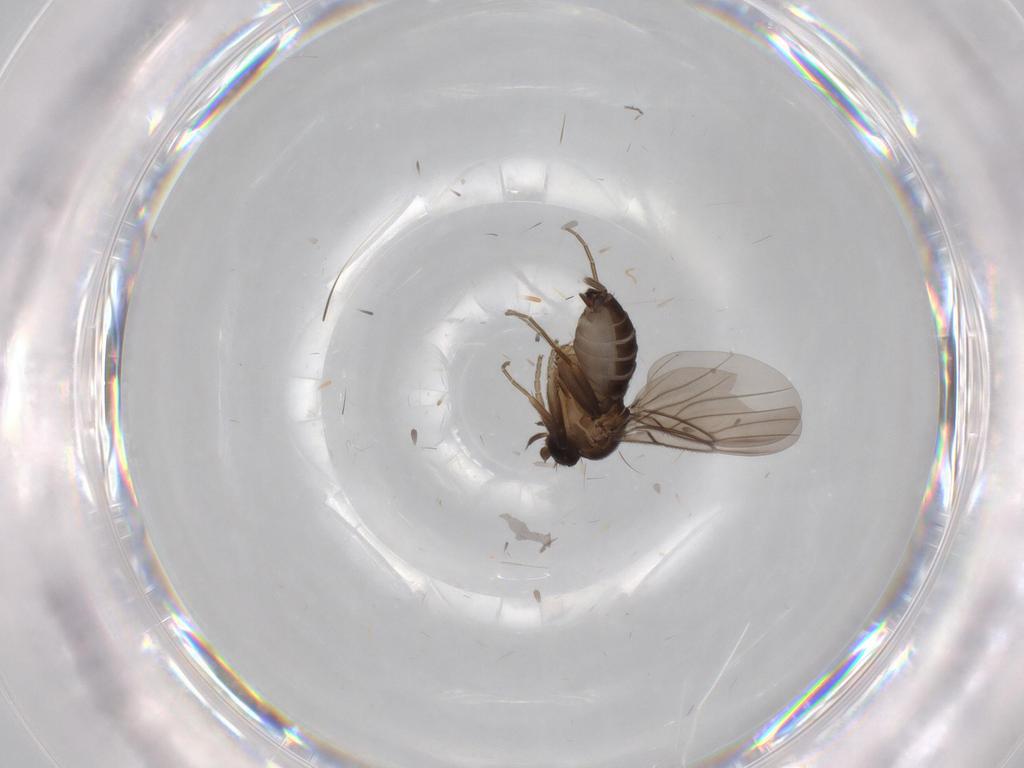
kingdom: Animalia
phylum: Arthropoda
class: Insecta
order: Diptera
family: Phoridae
